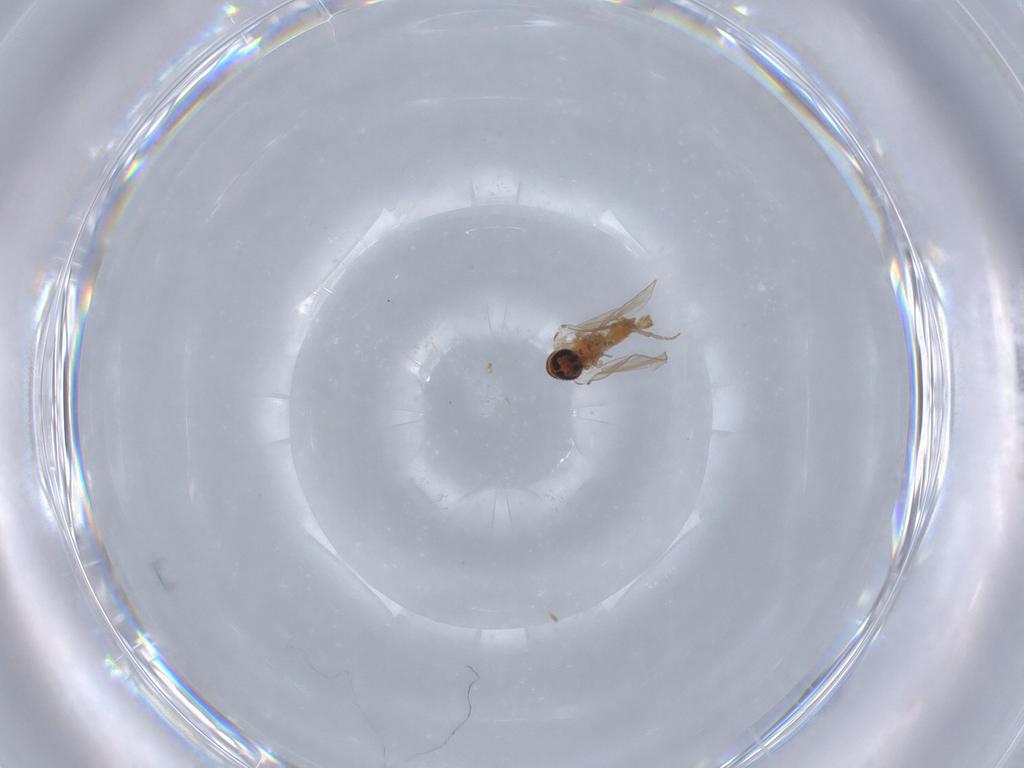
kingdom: Animalia
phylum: Arthropoda
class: Insecta
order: Diptera
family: Psychodidae
